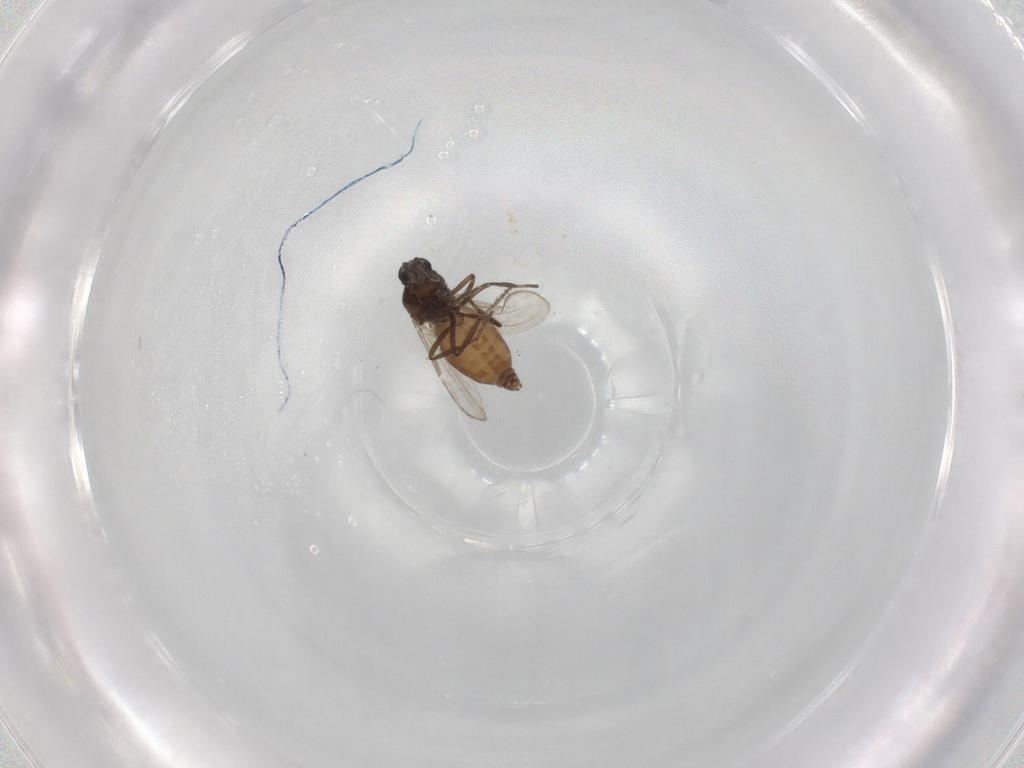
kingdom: Animalia
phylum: Arthropoda
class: Insecta
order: Diptera
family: Ceratopogonidae
